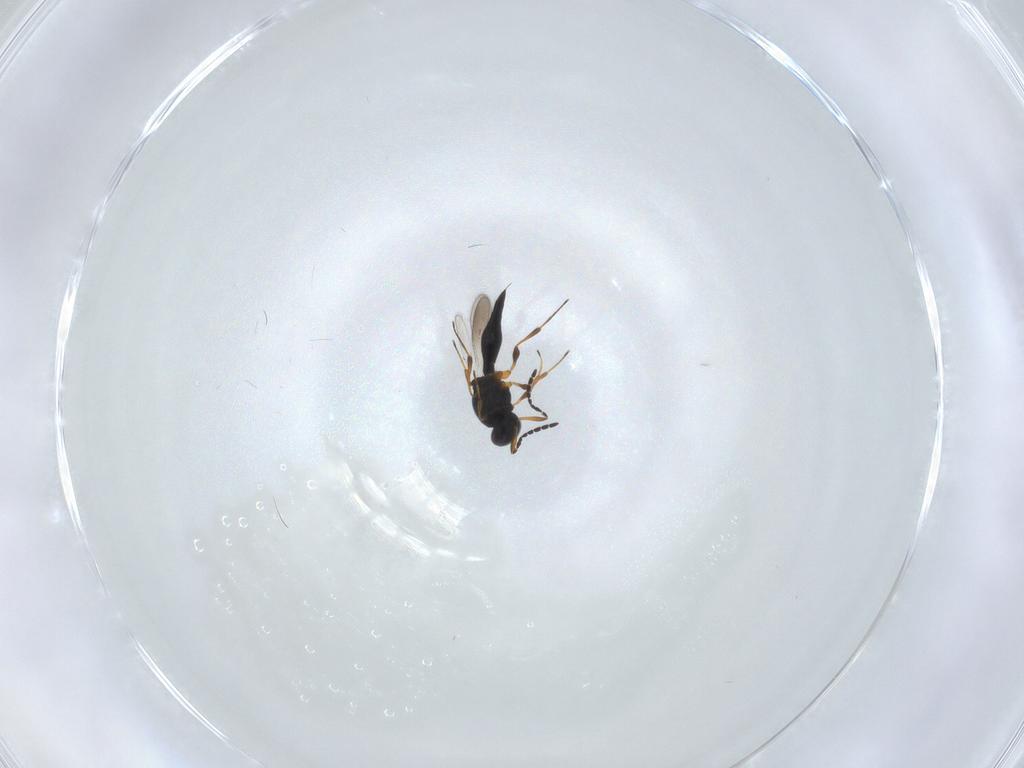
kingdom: Animalia
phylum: Arthropoda
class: Insecta
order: Hymenoptera
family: Platygastridae
